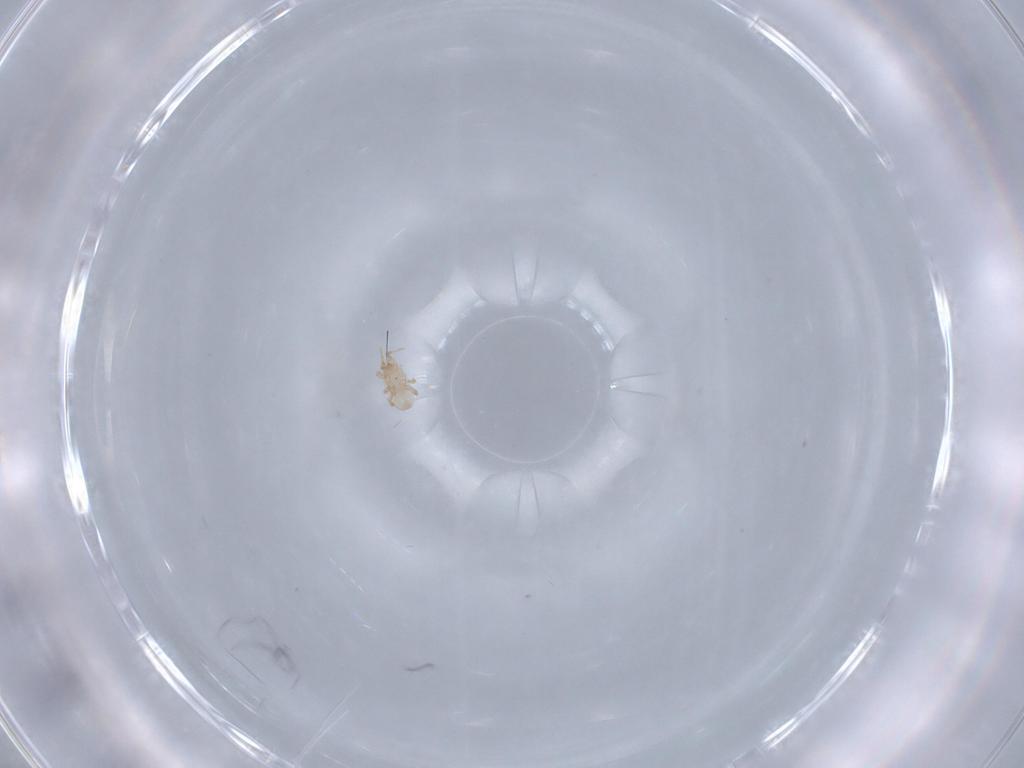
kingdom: Animalia
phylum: Arthropoda
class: Arachnida
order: Mesostigmata
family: Ascidae
